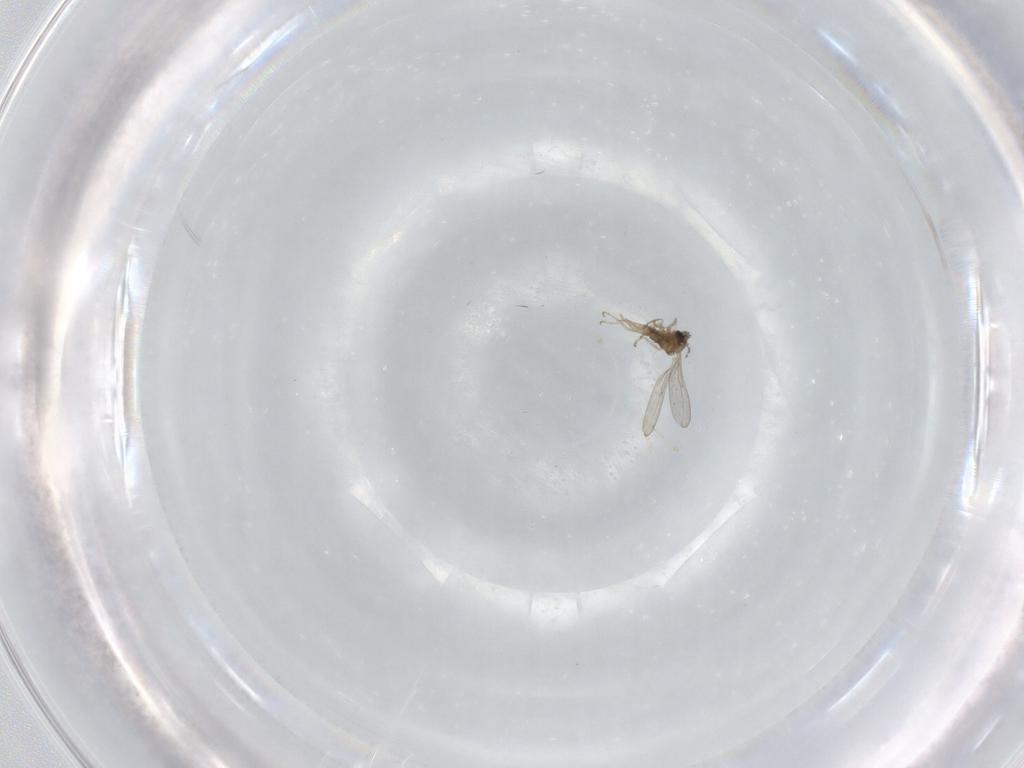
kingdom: Animalia
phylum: Arthropoda
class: Insecta
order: Diptera
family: Cecidomyiidae
